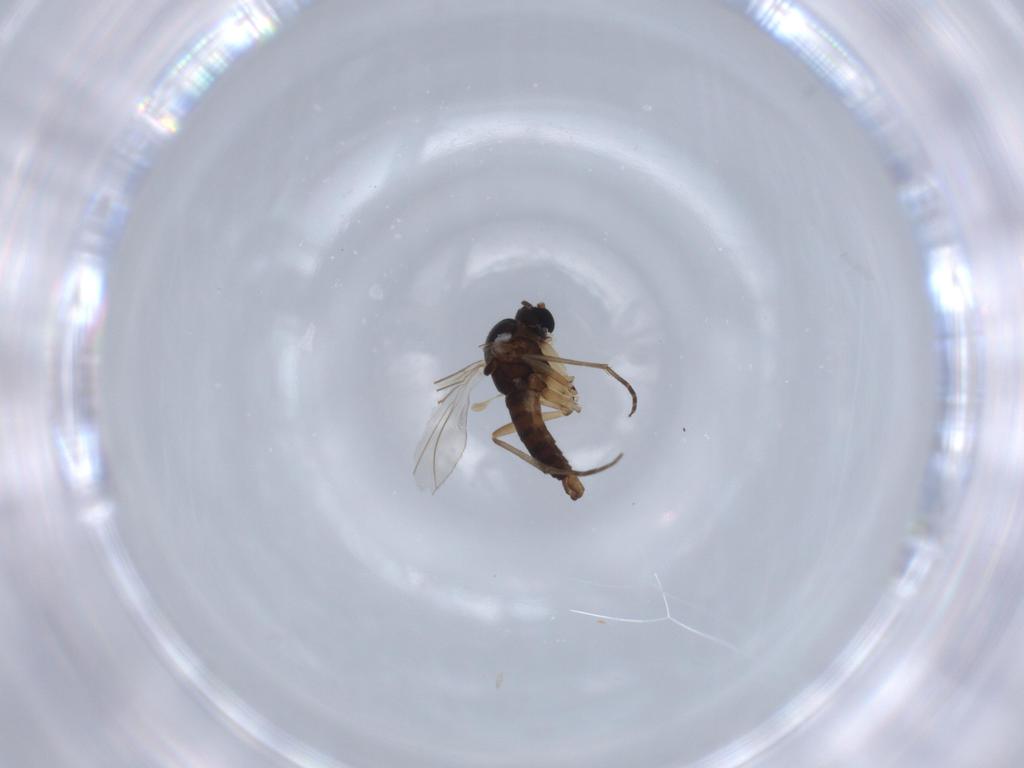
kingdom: Animalia
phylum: Arthropoda
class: Insecta
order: Diptera
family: Sciaridae
